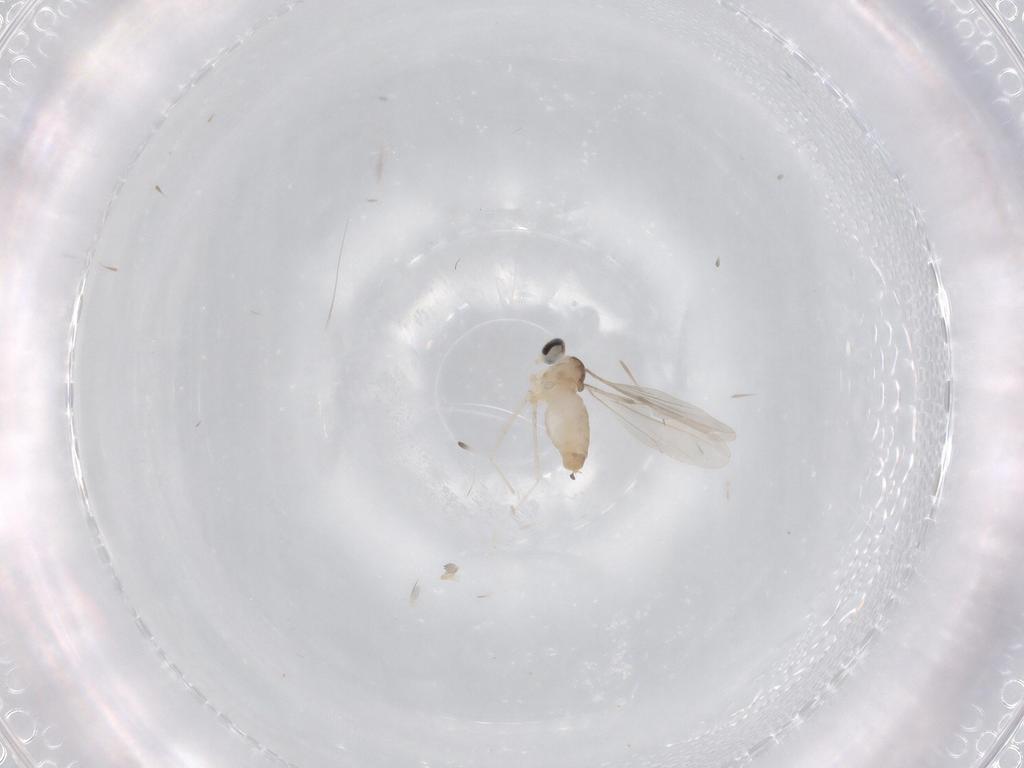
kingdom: Animalia
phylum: Arthropoda
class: Insecta
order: Diptera
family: Cecidomyiidae
